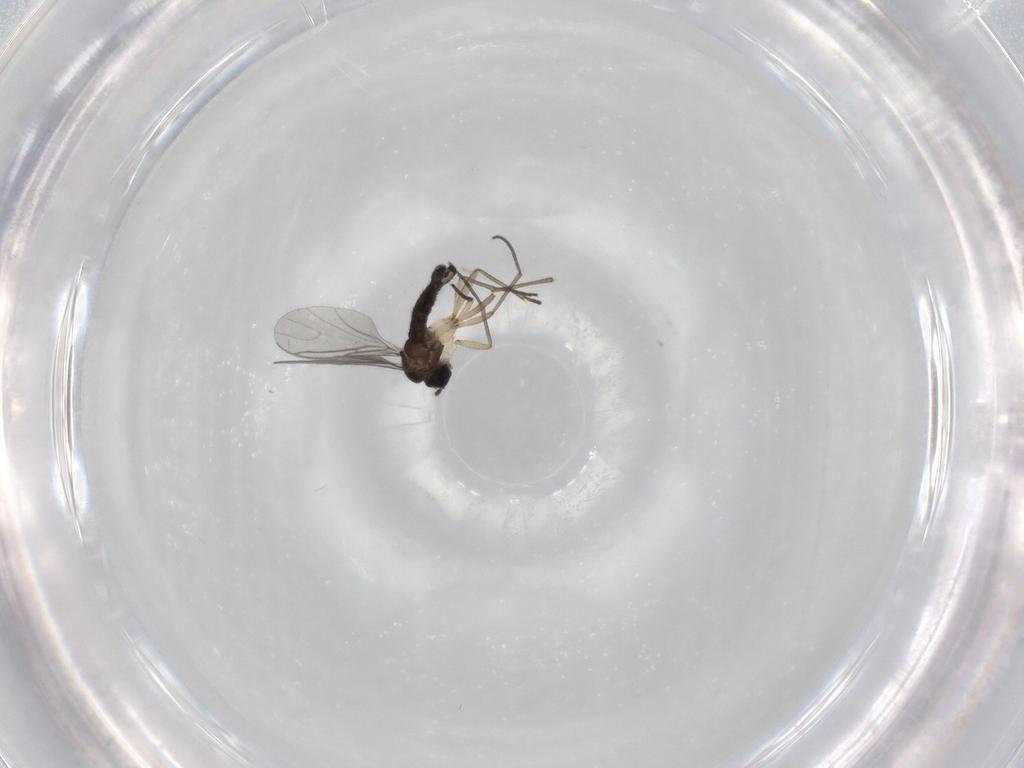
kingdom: Animalia
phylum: Arthropoda
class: Insecta
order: Diptera
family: Sciaridae
